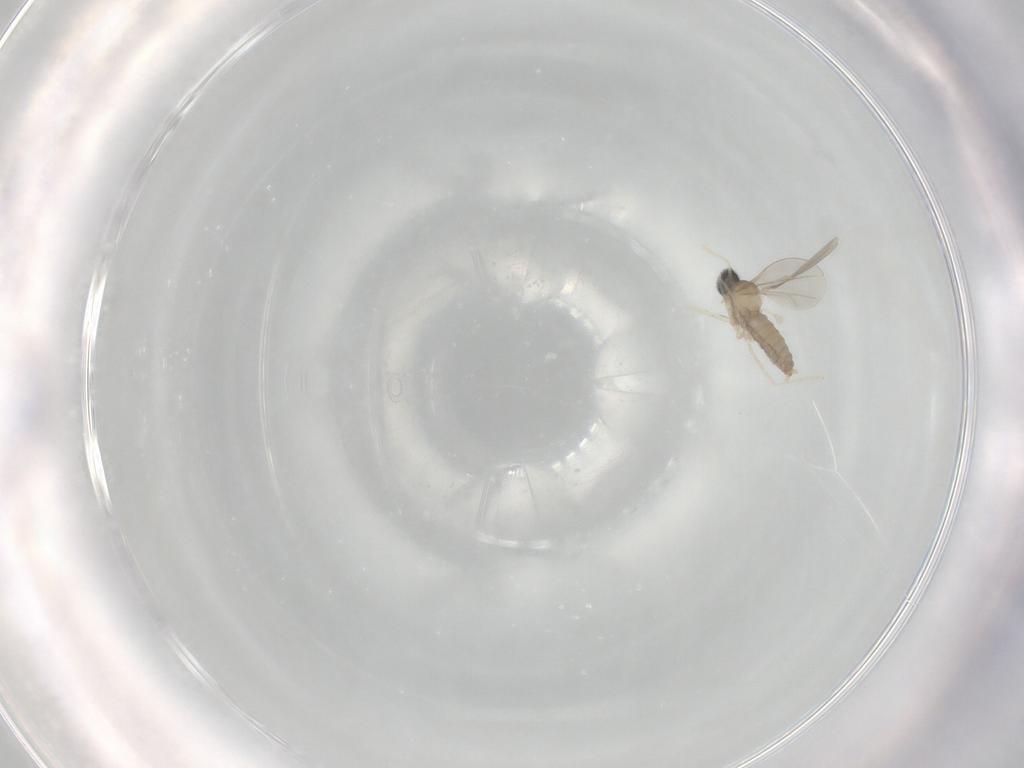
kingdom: Animalia
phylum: Arthropoda
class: Insecta
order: Diptera
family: Cecidomyiidae
